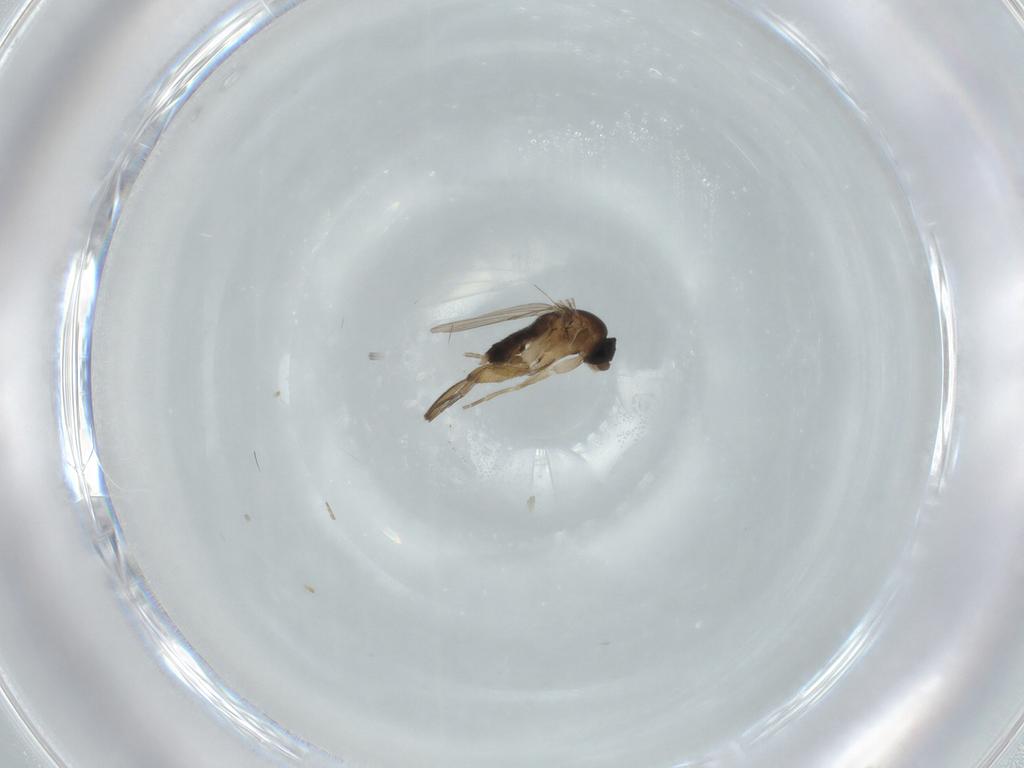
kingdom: Animalia
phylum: Arthropoda
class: Insecta
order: Diptera
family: Phoridae
